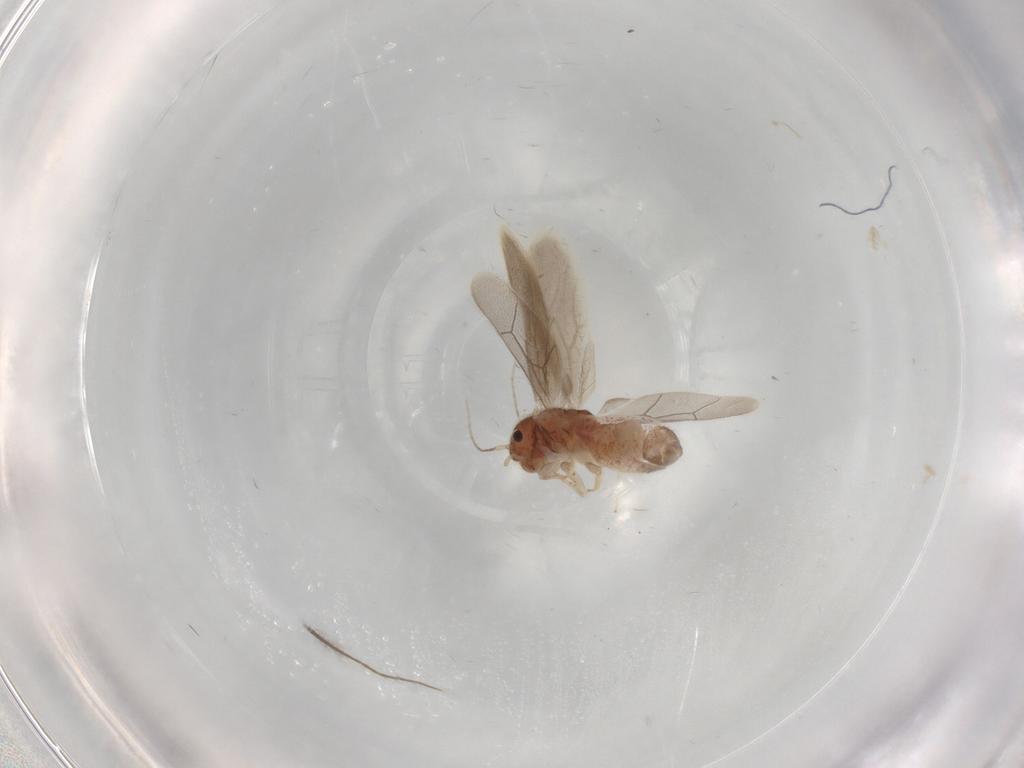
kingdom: Animalia
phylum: Arthropoda
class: Insecta
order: Psocodea
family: Archipsocidae
